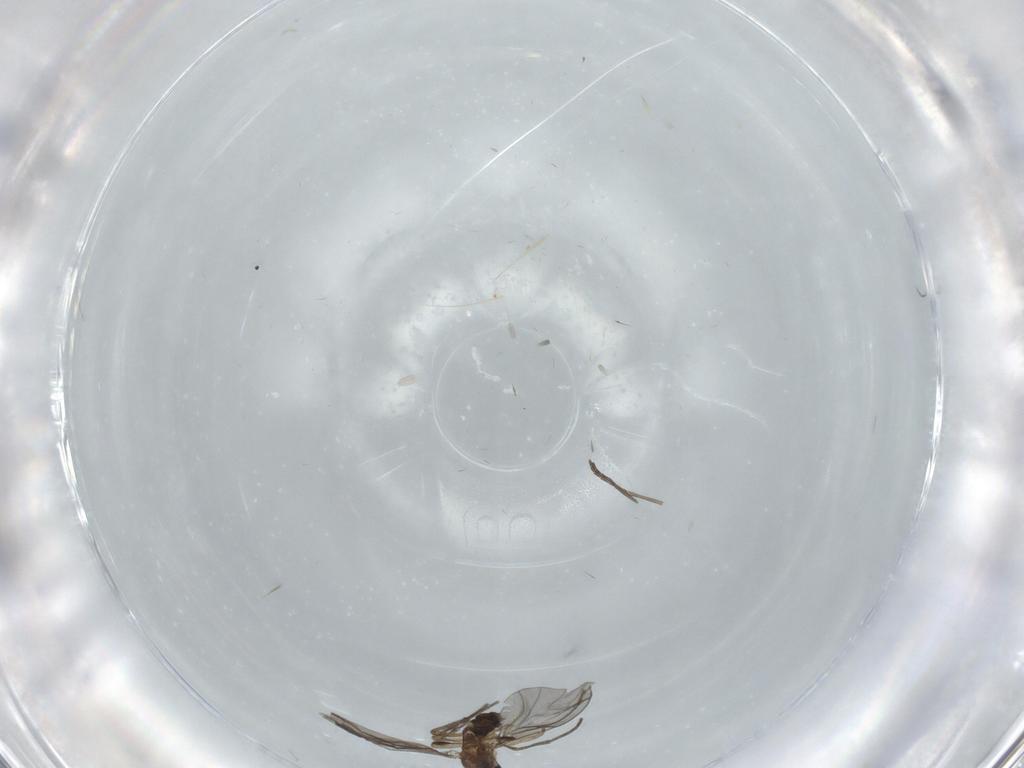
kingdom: Animalia
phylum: Arthropoda
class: Insecta
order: Diptera
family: Sciaridae
